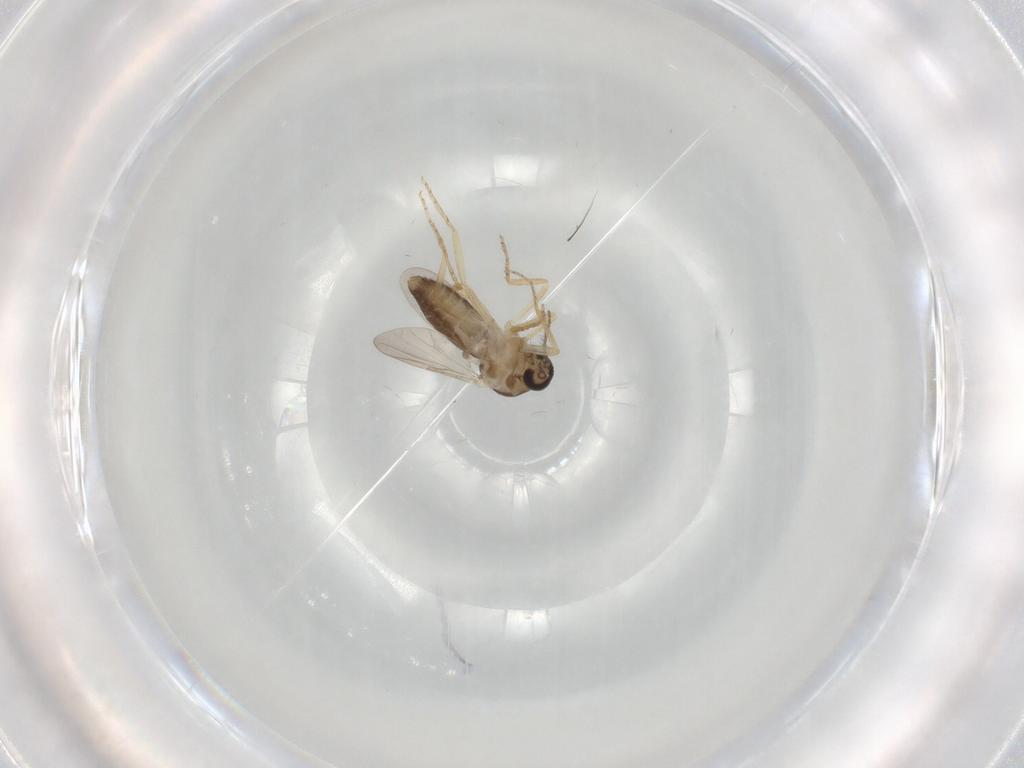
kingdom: Animalia
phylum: Arthropoda
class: Insecta
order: Diptera
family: Ceratopogonidae
